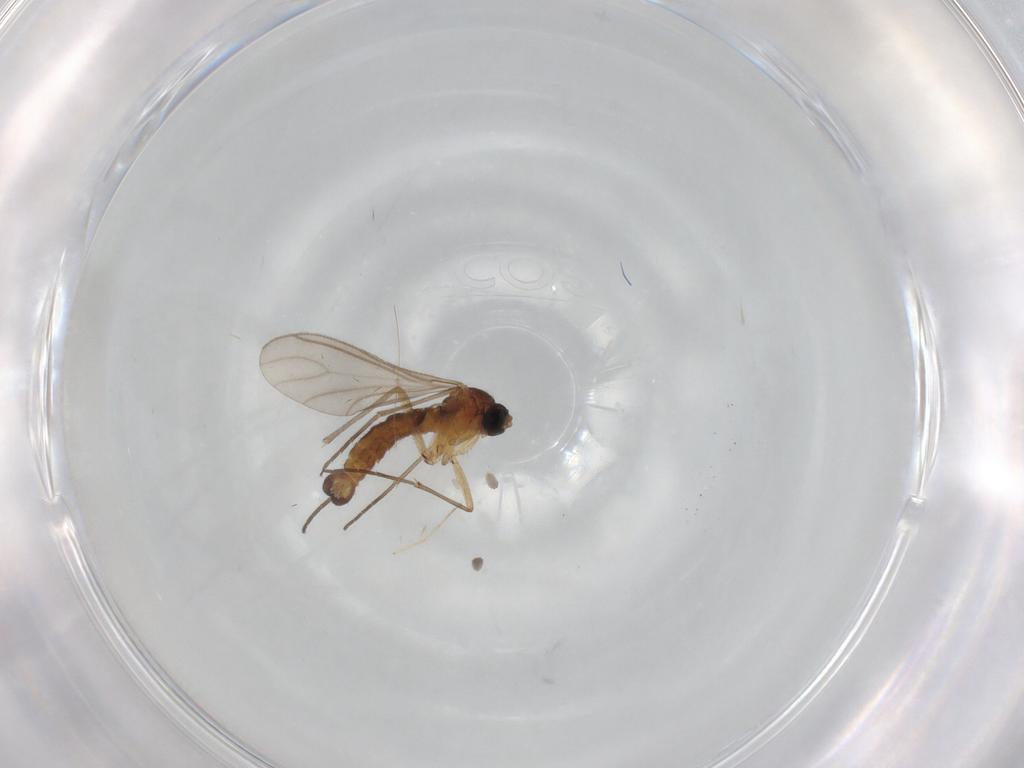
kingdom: Animalia
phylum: Arthropoda
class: Insecta
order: Diptera
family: Sciaridae
